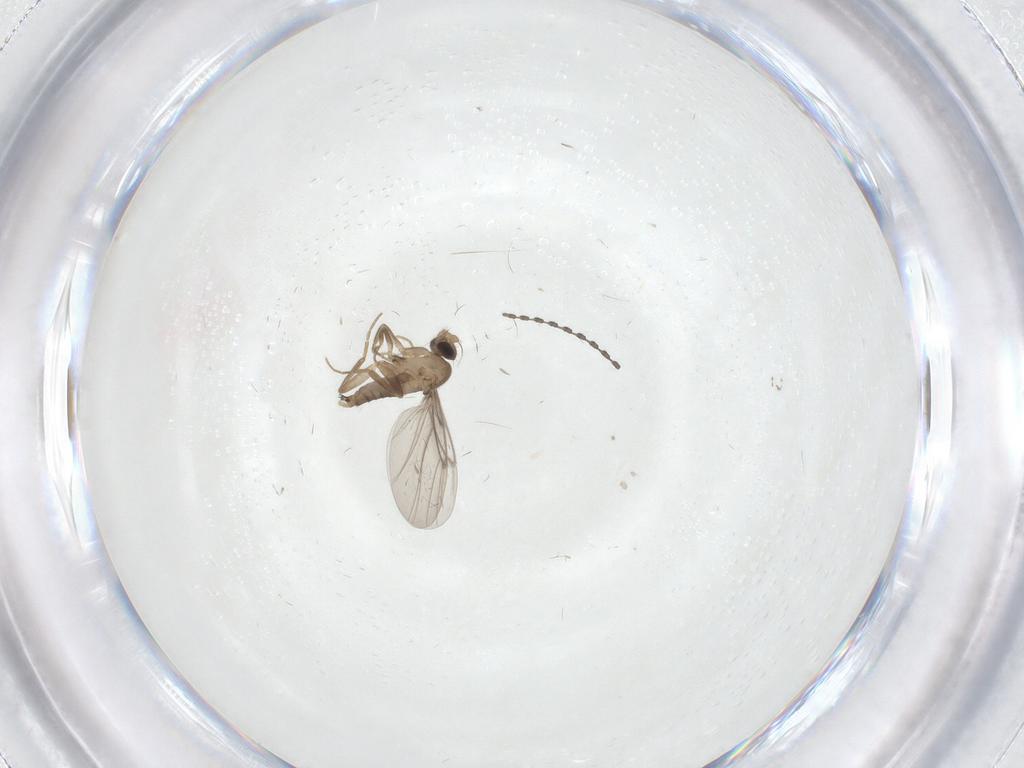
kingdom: Animalia
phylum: Arthropoda
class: Insecta
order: Diptera
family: Cecidomyiidae
